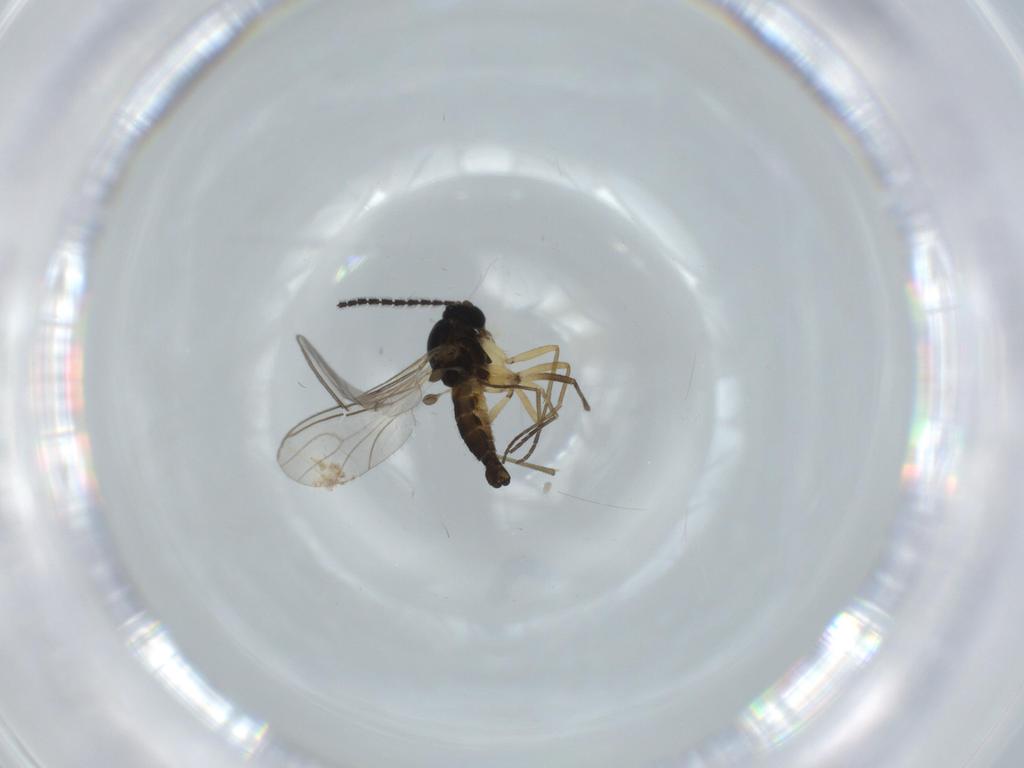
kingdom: Animalia
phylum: Arthropoda
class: Insecta
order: Diptera
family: Sciaridae
